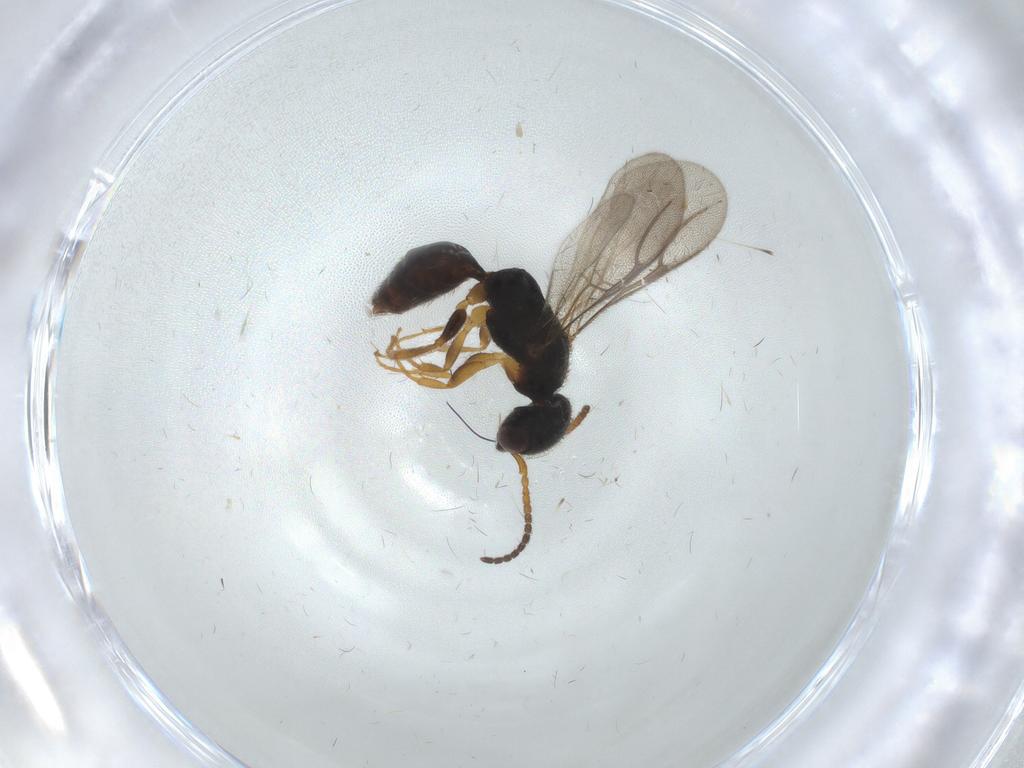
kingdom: Animalia
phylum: Arthropoda
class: Insecta
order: Hymenoptera
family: Bethylidae
